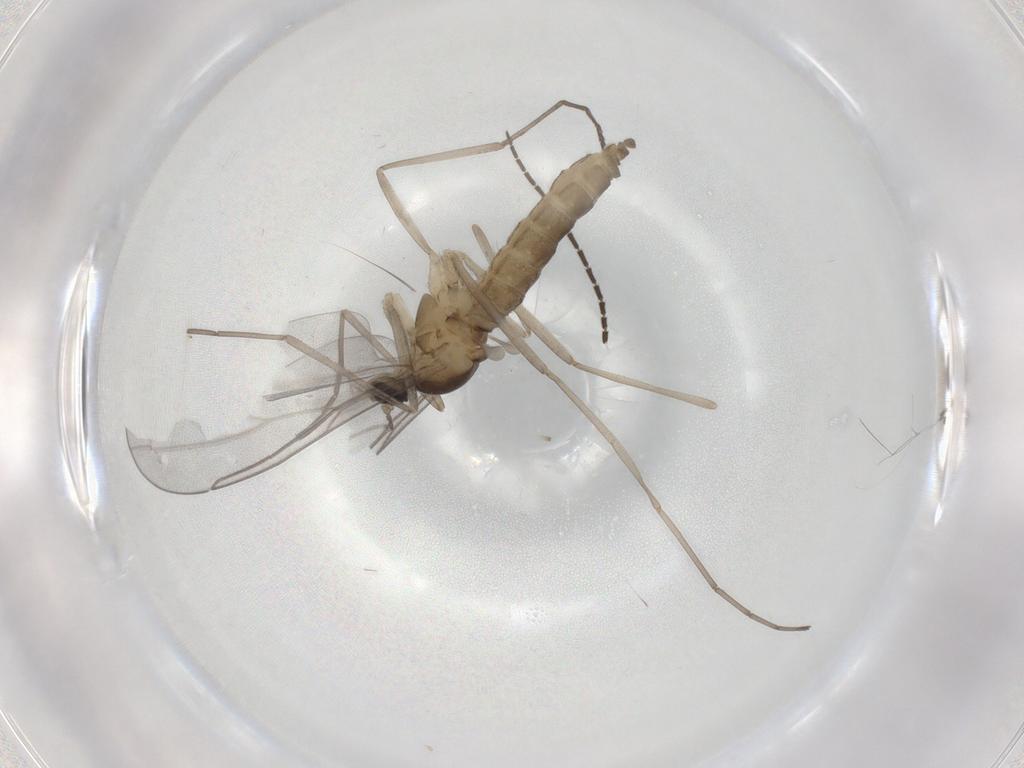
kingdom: Animalia
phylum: Arthropoda
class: Insecta
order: Diptera
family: Cecidomyiidae
